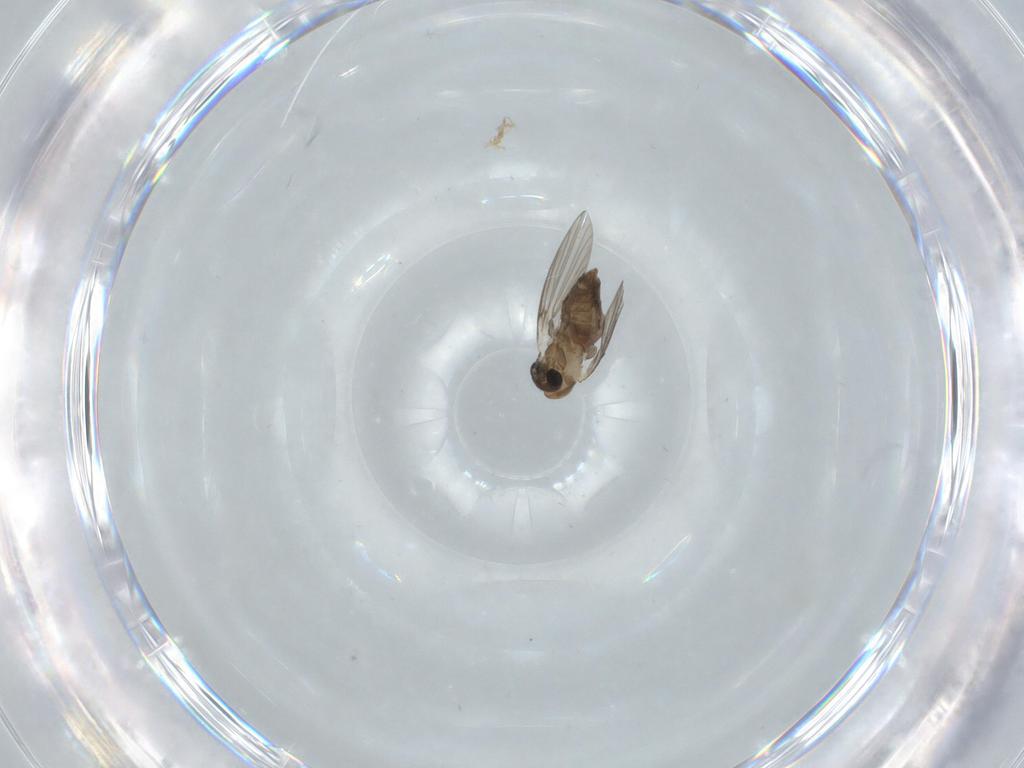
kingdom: Animalia
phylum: Arthropoda
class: Insecta
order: Diptera
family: Psychodidae
